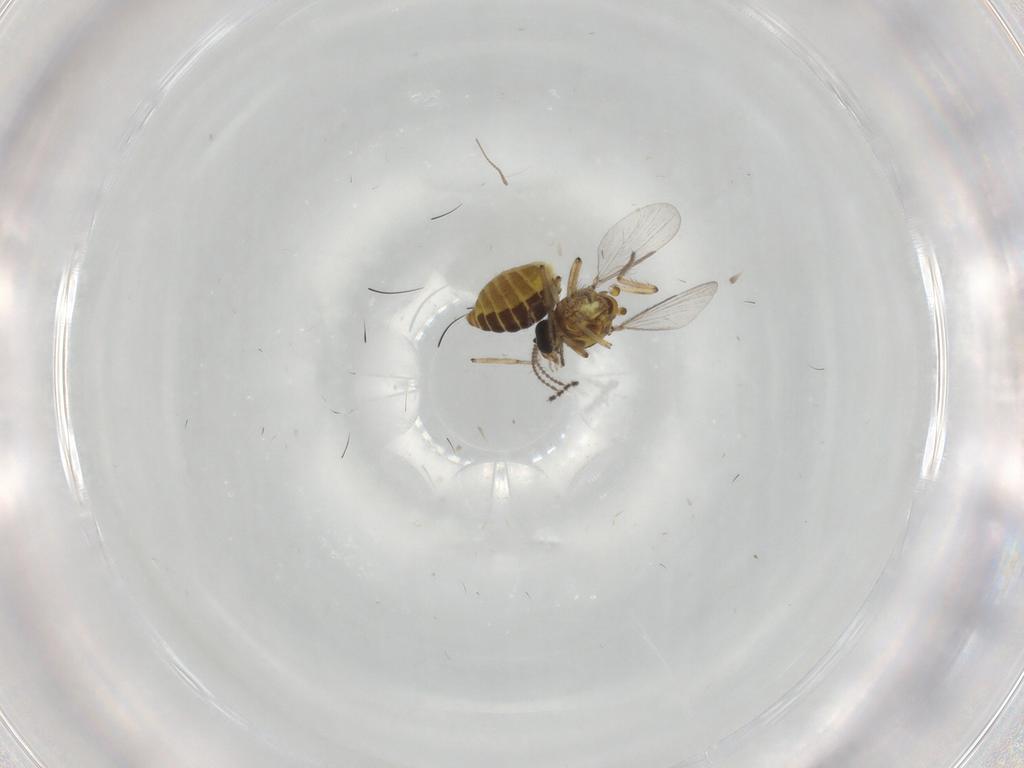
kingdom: Animalia
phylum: Arthropoda
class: Insecta
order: Diptera
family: Ceratopogonidae
